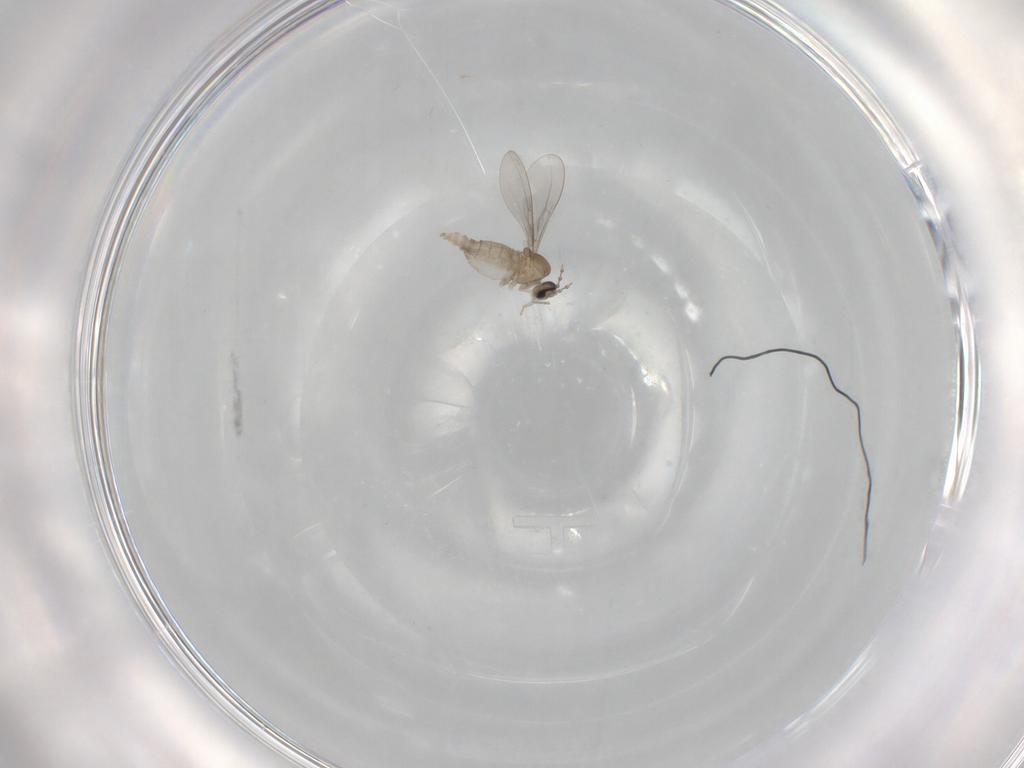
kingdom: Animalia
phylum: Arthropoda
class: Insecta
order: Diptera
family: Cecidomyiidae
